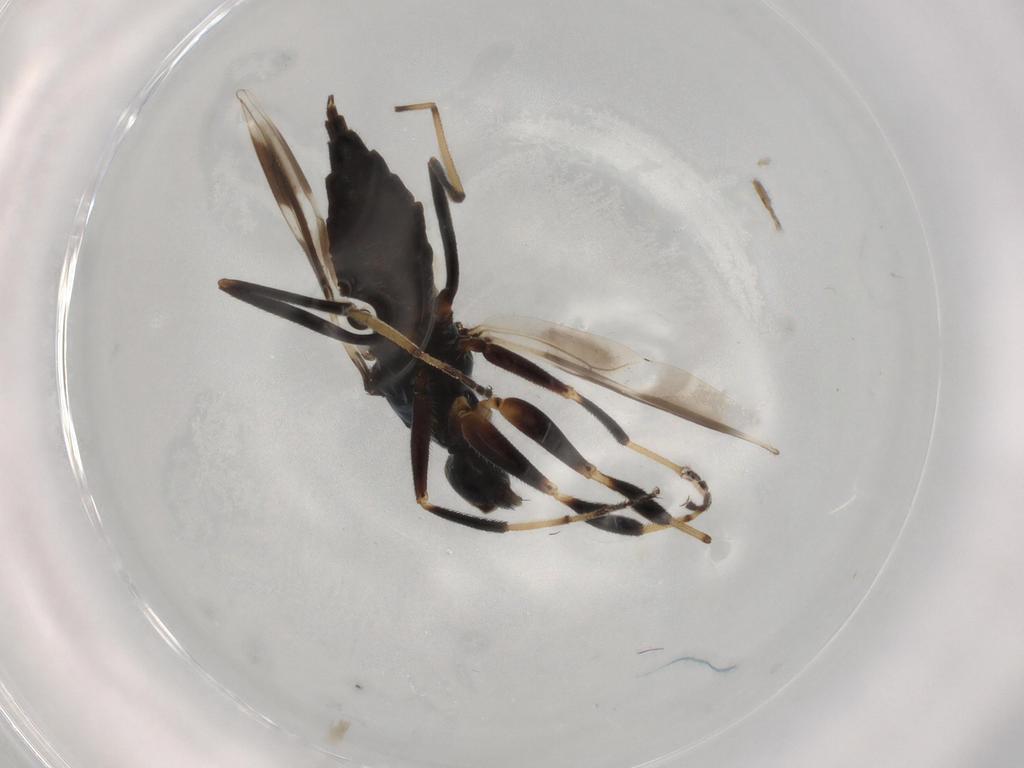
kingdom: Animalia
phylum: Arthropoda
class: Insecta
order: Diptera
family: Hybotidae
